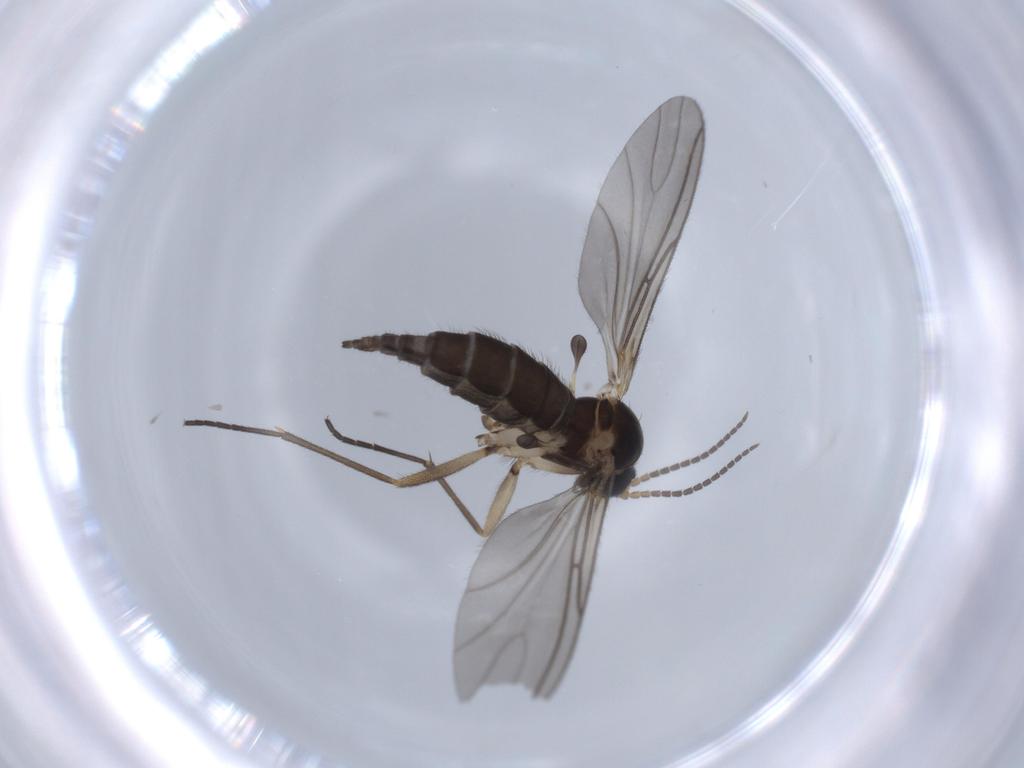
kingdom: Animalia
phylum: Arthropoda
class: Insecta
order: Diptera
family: Sciaridae
